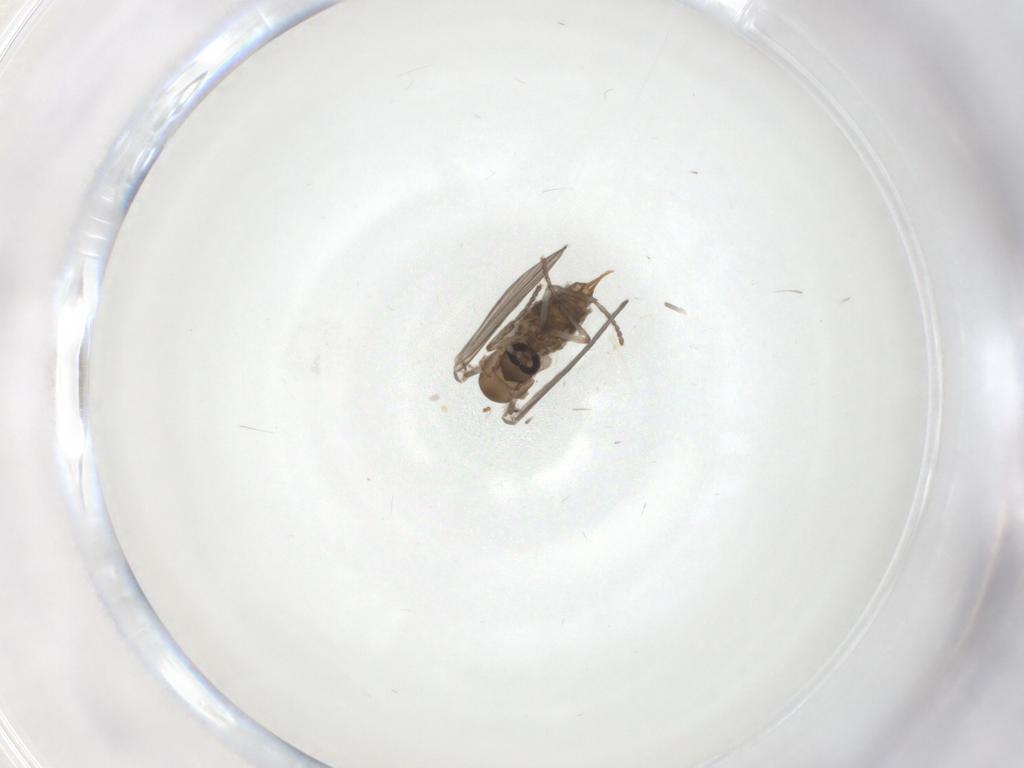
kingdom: Animalia
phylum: Arthropoda
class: Insecta
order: Diptera
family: Psychodidae
